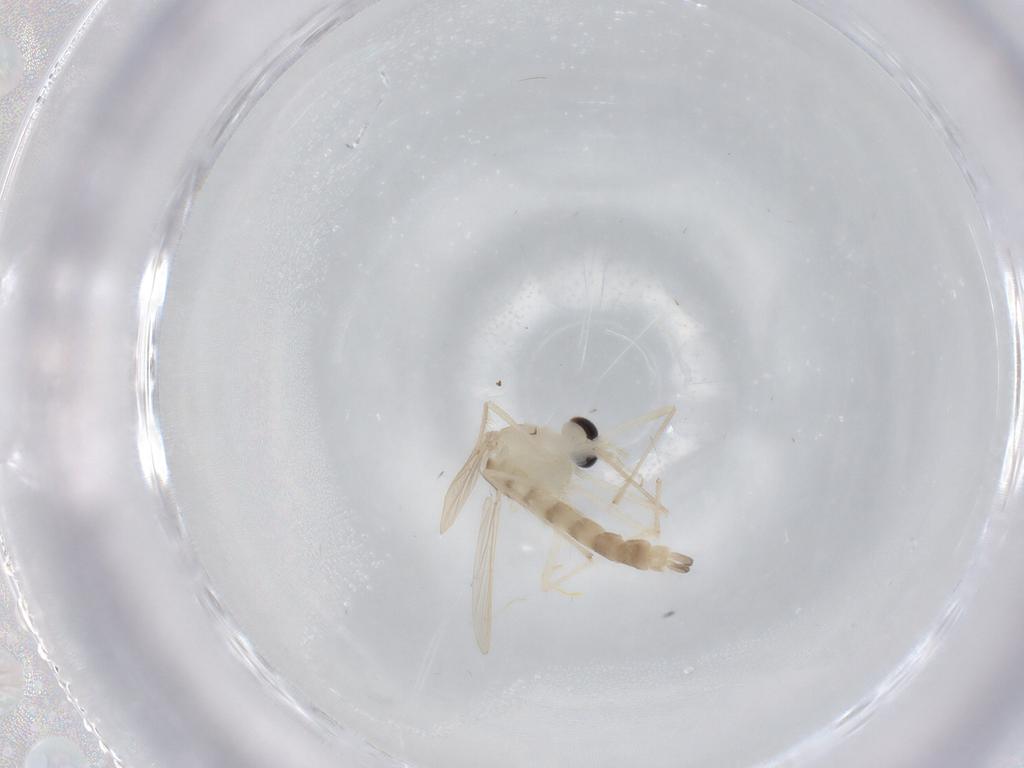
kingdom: Animalia
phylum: Arthropoda
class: Insecta
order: Diptera
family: Chironomidae
